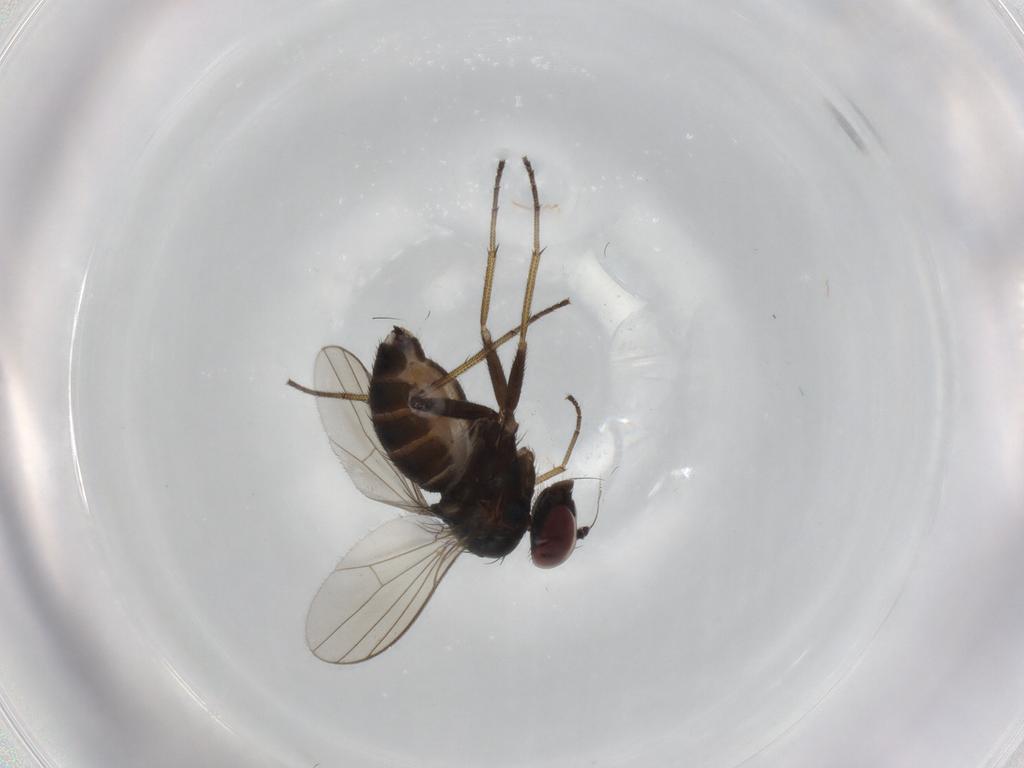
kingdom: Animalia
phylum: Arthropoda
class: Insecta
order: Diptera
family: Dolichopodidae
